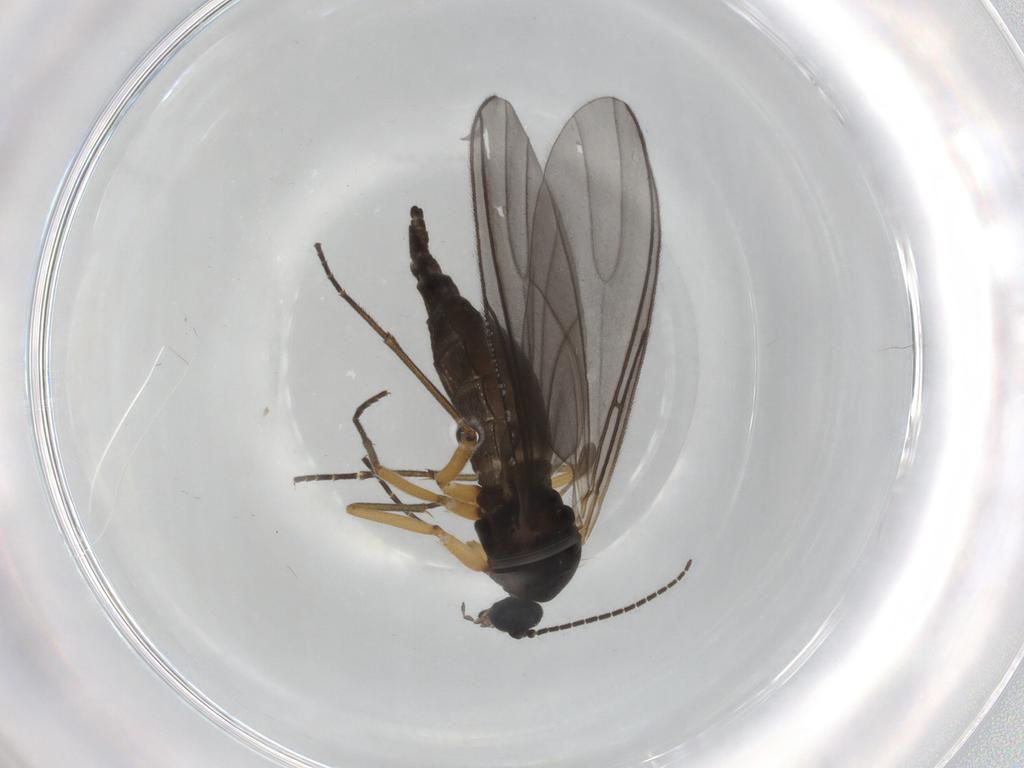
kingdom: Animalia
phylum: Arthropoda
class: Insecta
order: Diptera
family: Sciaridae
